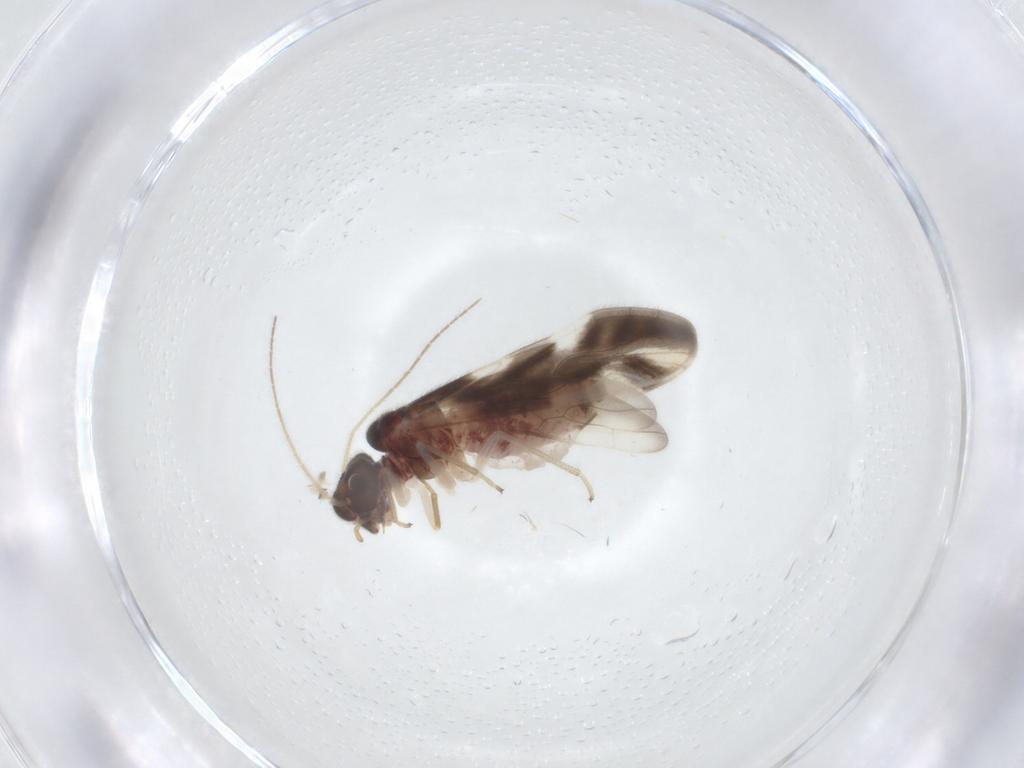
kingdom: Animalia
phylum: Arthropoda
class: Insecta
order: Psocodea
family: Caeciliusidae
